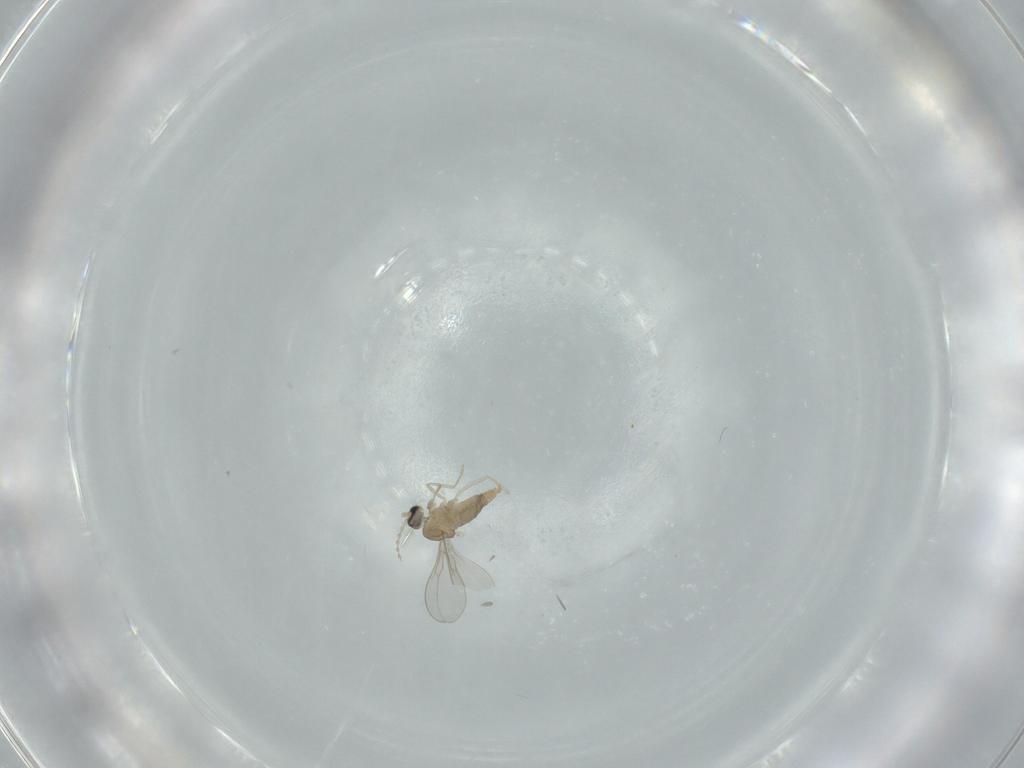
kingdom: Animalia
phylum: Arthropoda
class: Insecta
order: Diptera
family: Cecidomyiidae
